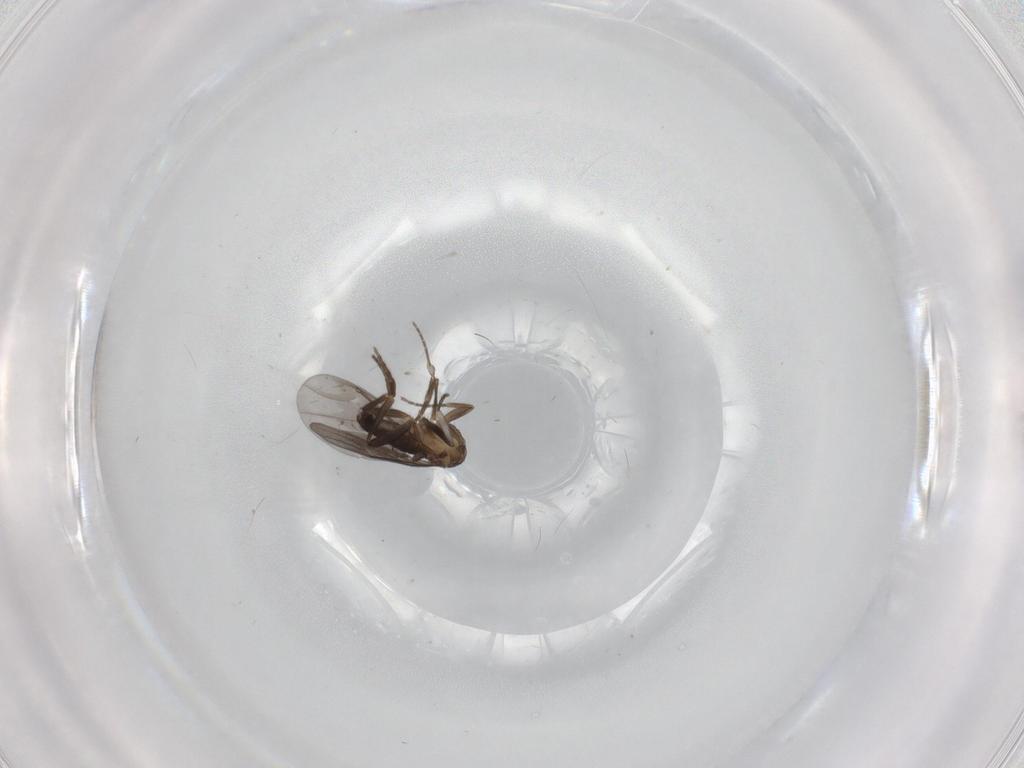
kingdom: Animalia
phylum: Arthropoda
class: Insecta
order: Diptera
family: Phoridae
